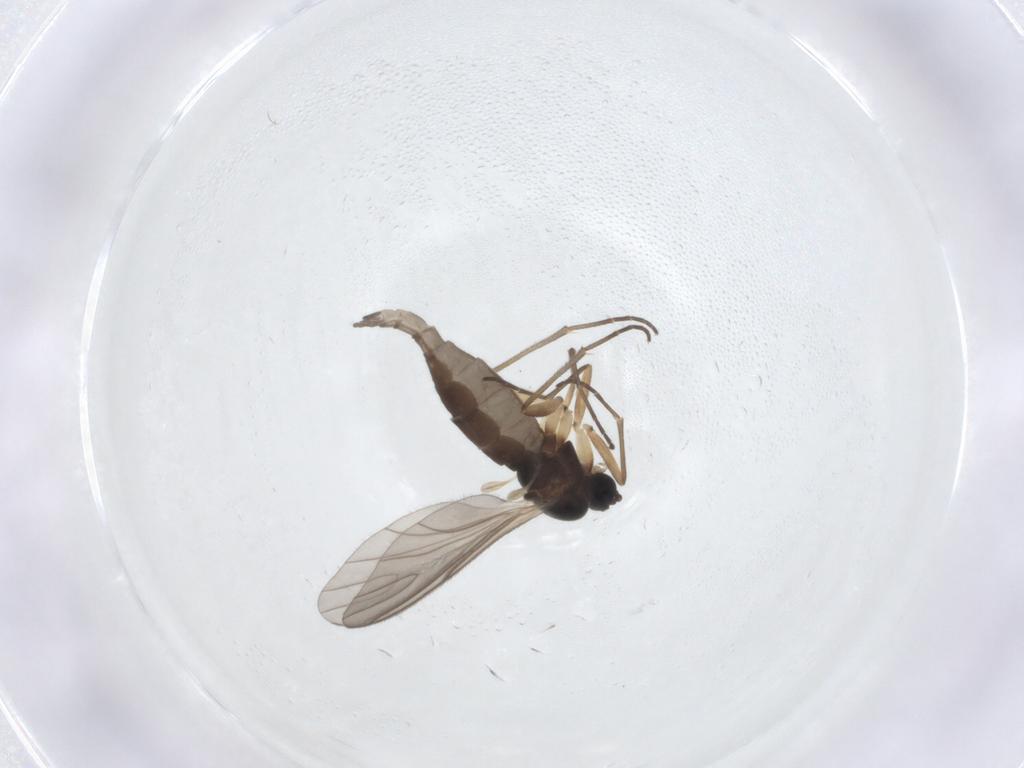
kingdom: Animalia
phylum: Arthropoda
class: Insecta
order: Diptera
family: Sciaridae
